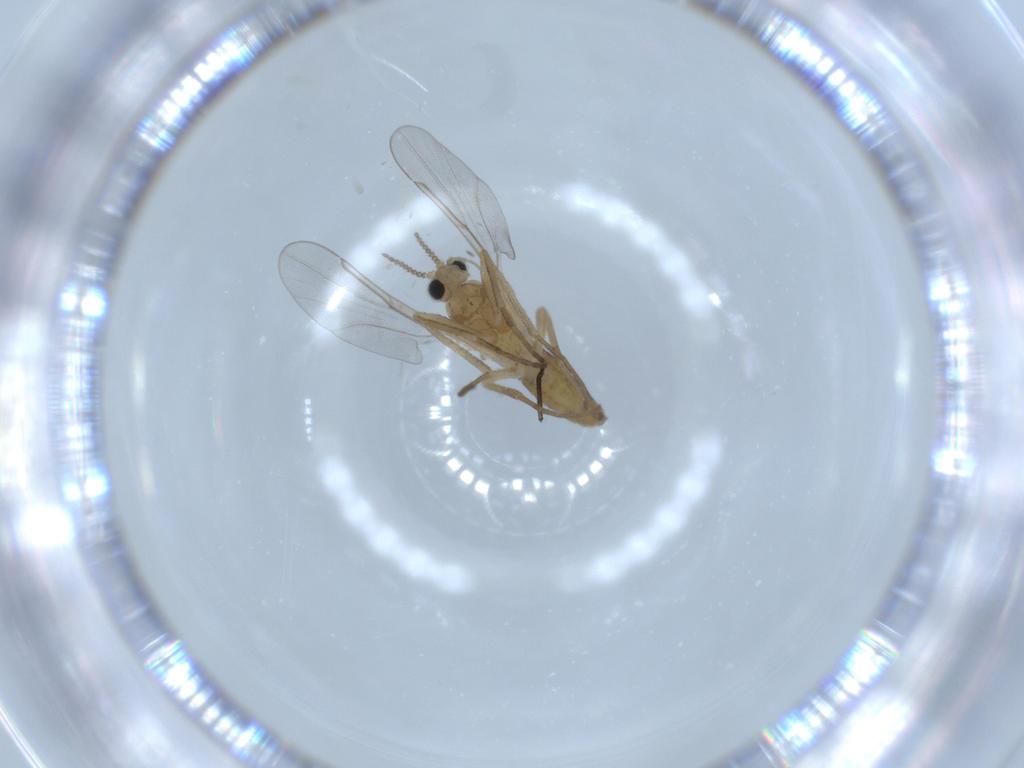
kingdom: Animalia
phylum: Arthropoda
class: Insecta
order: Diptera
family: Cecidomyiidae
